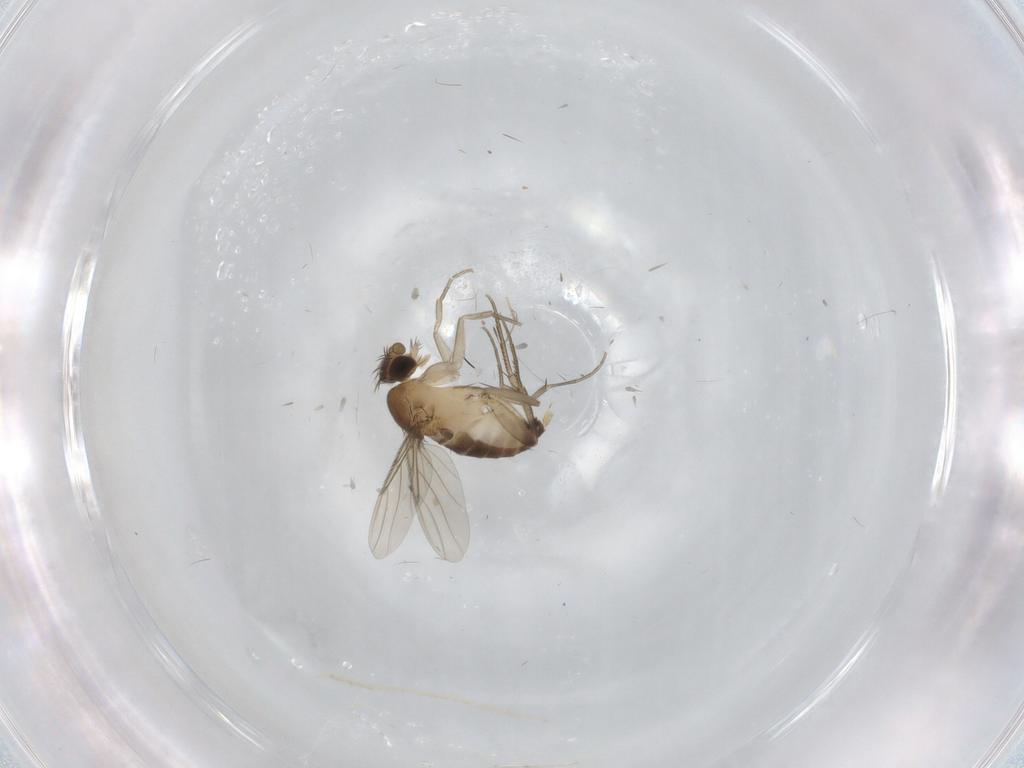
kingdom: Animalia
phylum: Arthropoda
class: Insecta
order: Diptera
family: Phoridae
